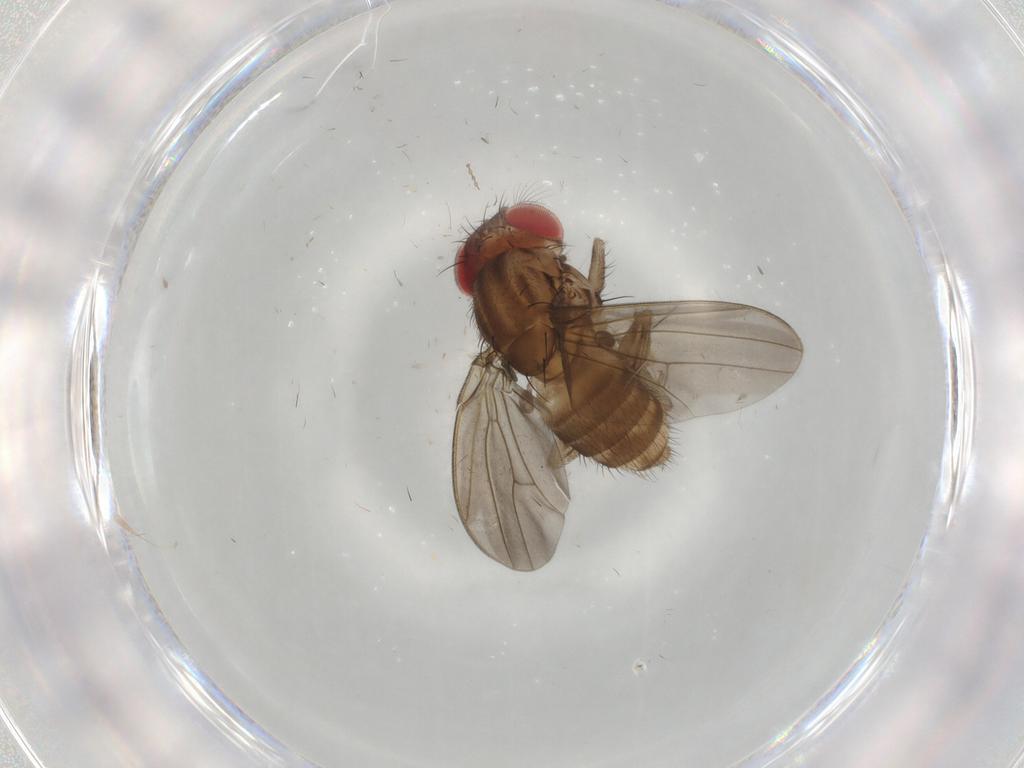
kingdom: Animalia
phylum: Arthropoda
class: Insecta
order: Diptera
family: Drosophilidae
